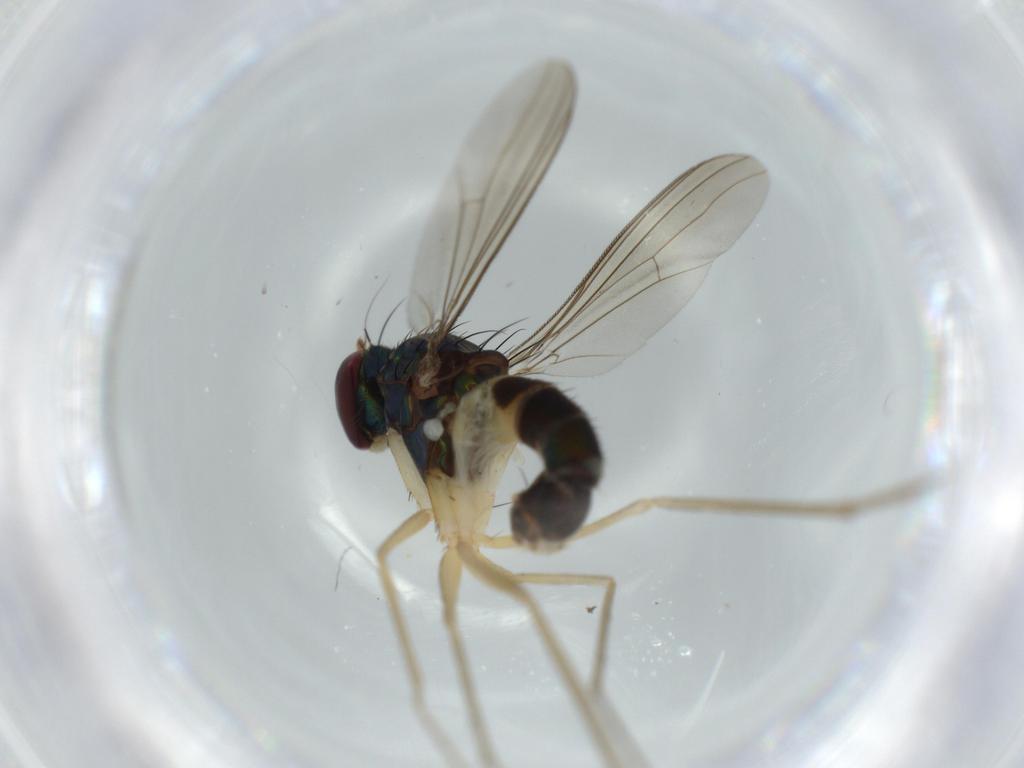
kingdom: Animalia
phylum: Arthropoda
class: Insecta
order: Diptera
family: Dolichopodidae
